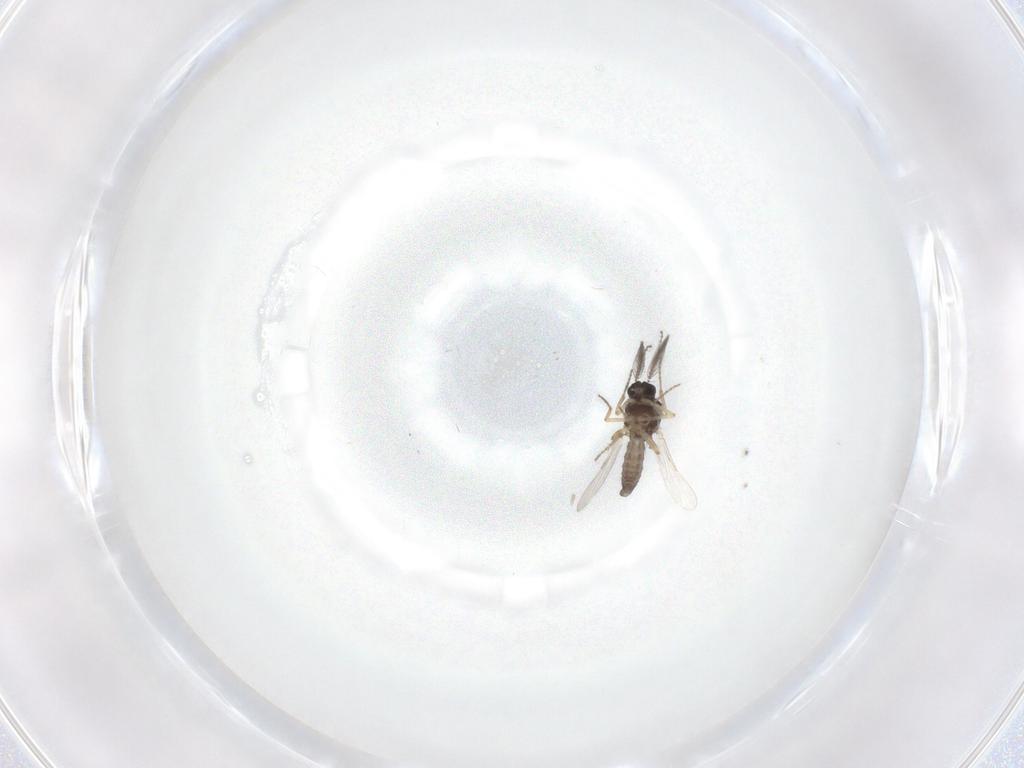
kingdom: Animalia
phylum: Arthropoda
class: Insecta
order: Diptera
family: Ceratopogonidae
